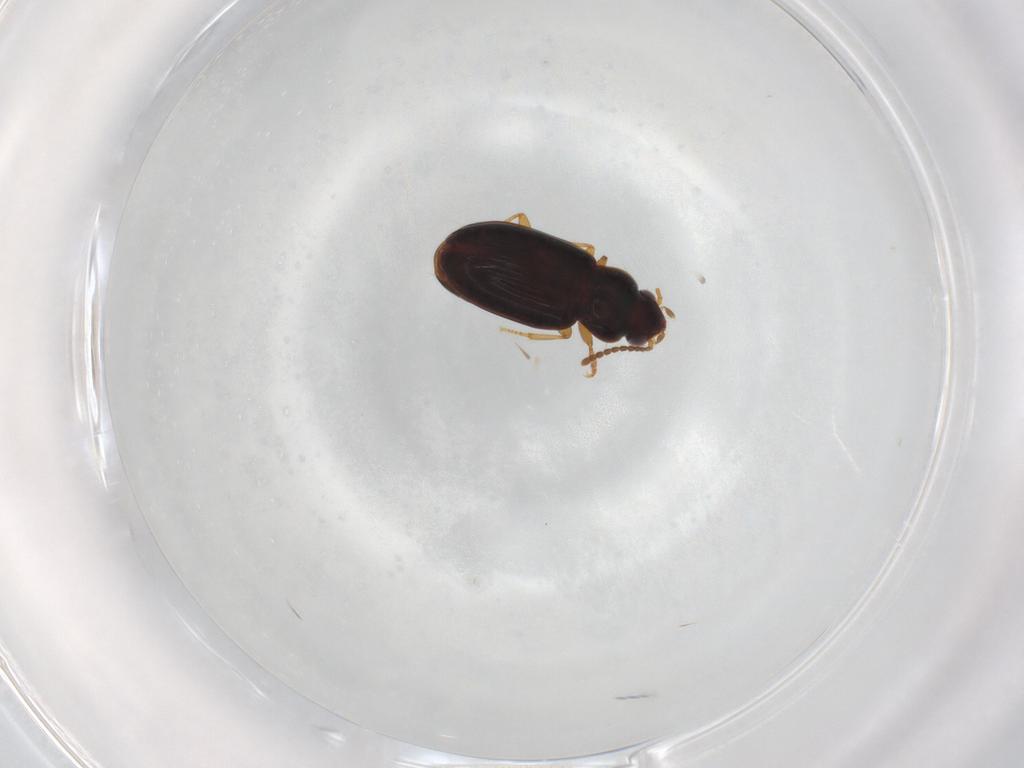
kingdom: Animalia
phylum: Arthropoda
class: Insecta
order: Coleoptera
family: Carabidae
